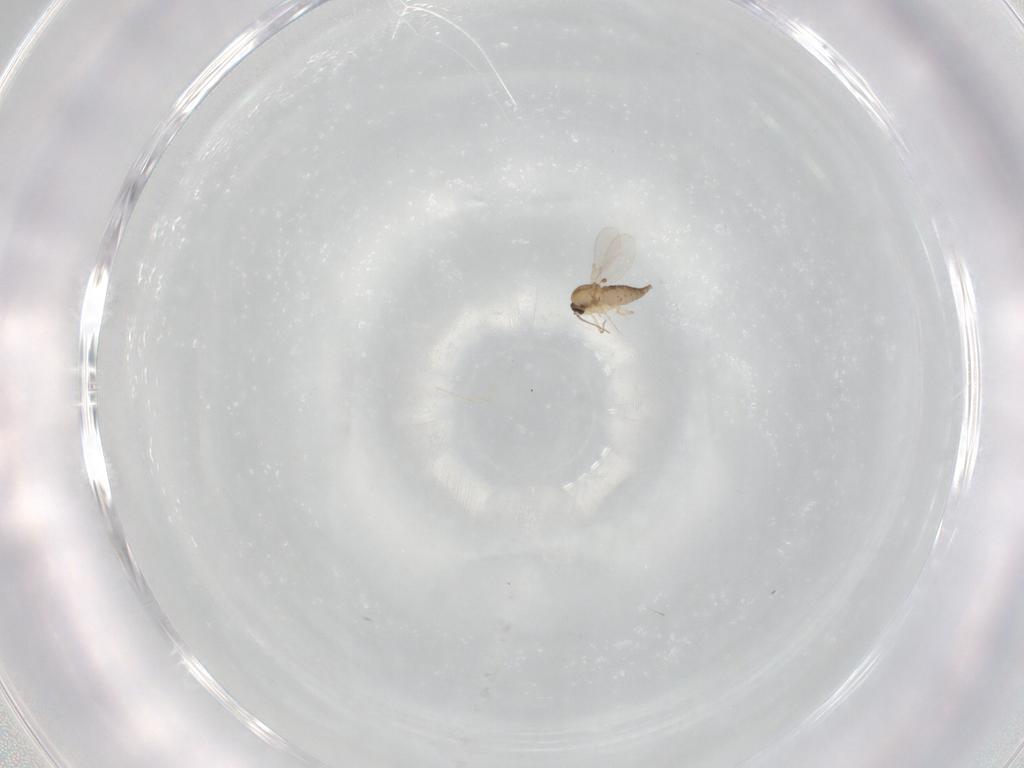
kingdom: Animalia
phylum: Arthropoda
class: Insecta
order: Diptera
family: Ceratopogonidae
